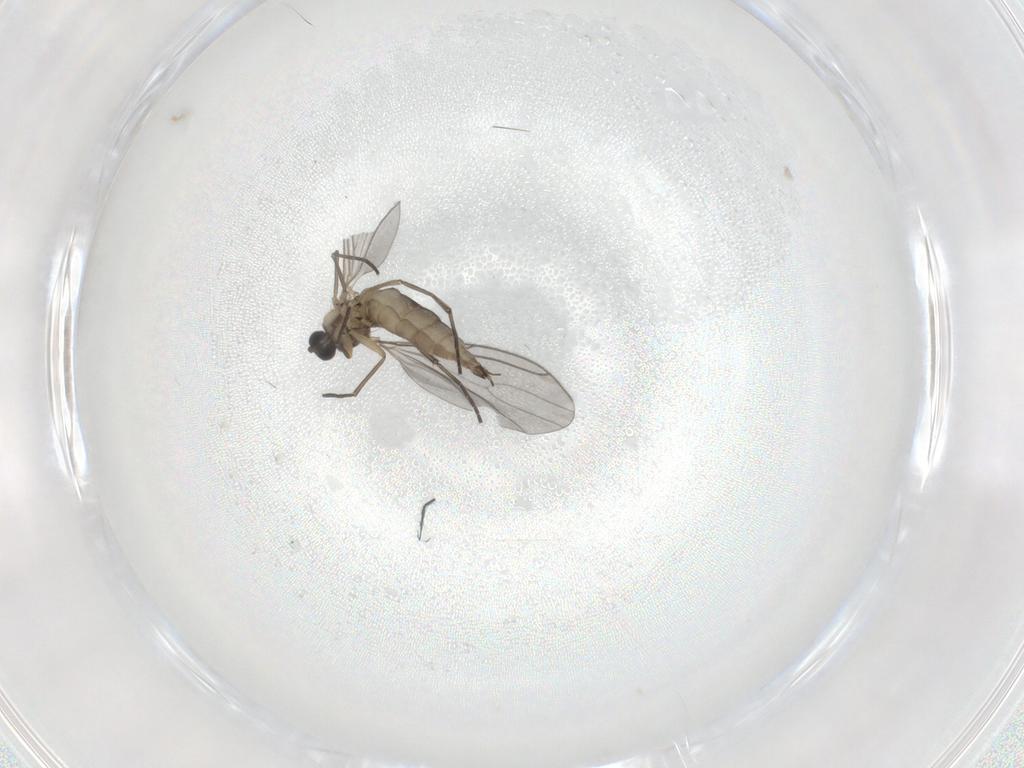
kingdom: Animalia
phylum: Arthropoda
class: Insecta
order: Diptera
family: Sciaridae
